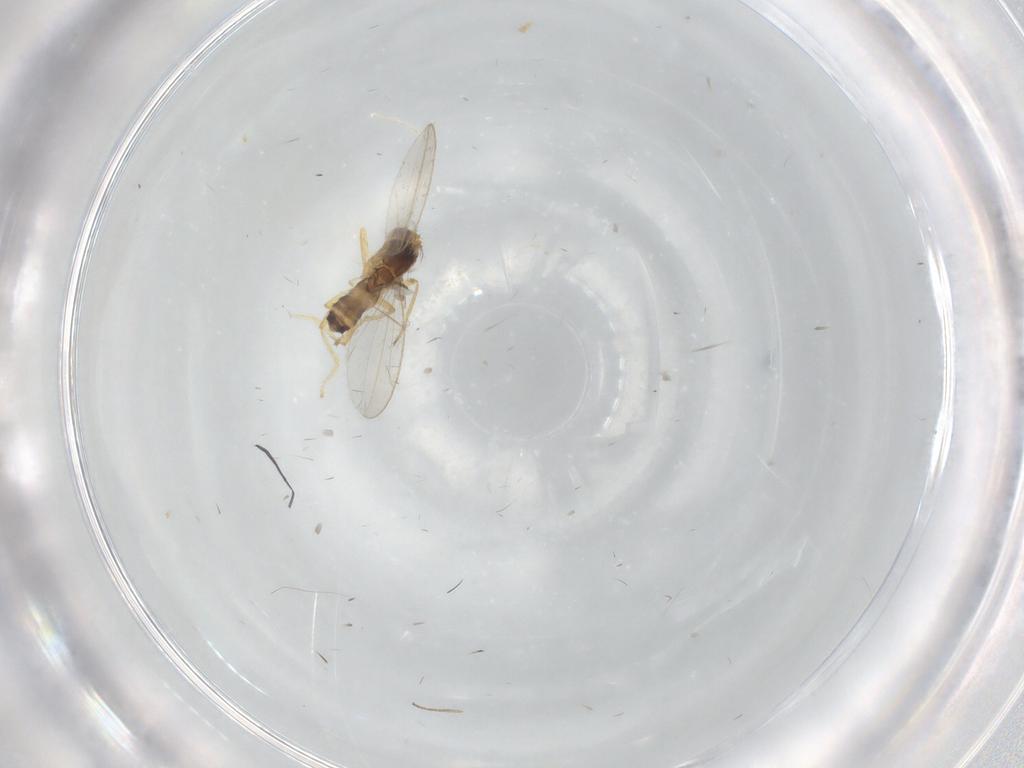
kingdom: Animalia
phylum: Arthropoda
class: Insecta
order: Diptera
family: Periscelididae
